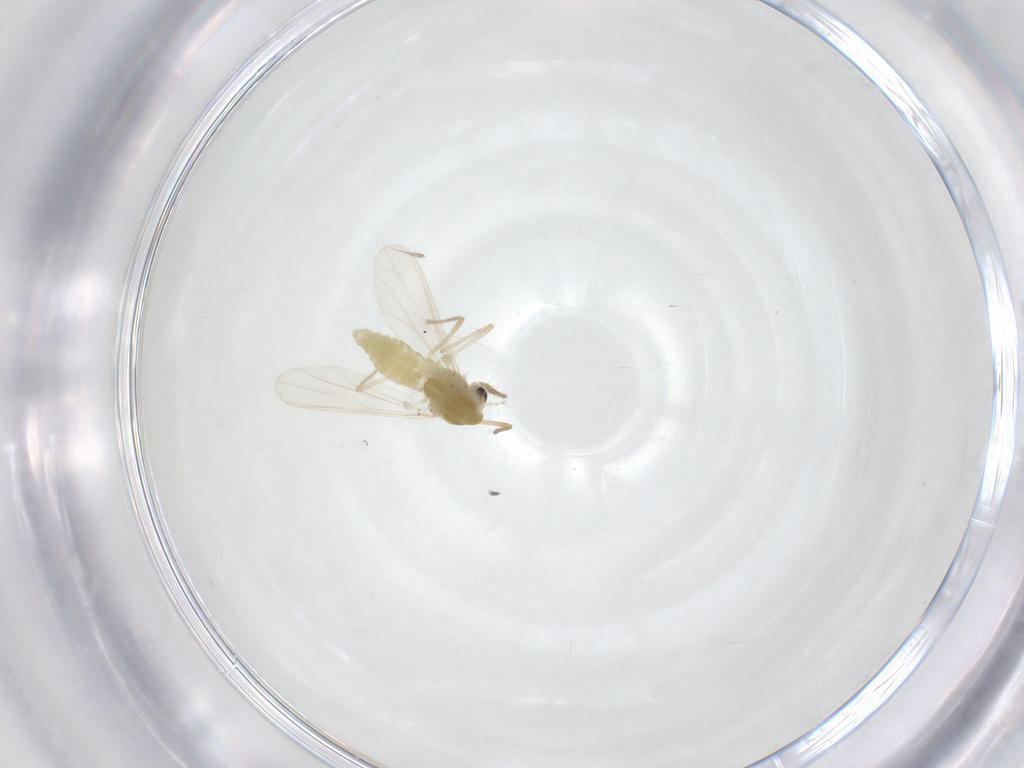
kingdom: Animalia
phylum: Arthropoda
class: Insecta
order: Diptera
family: Chironomidae
